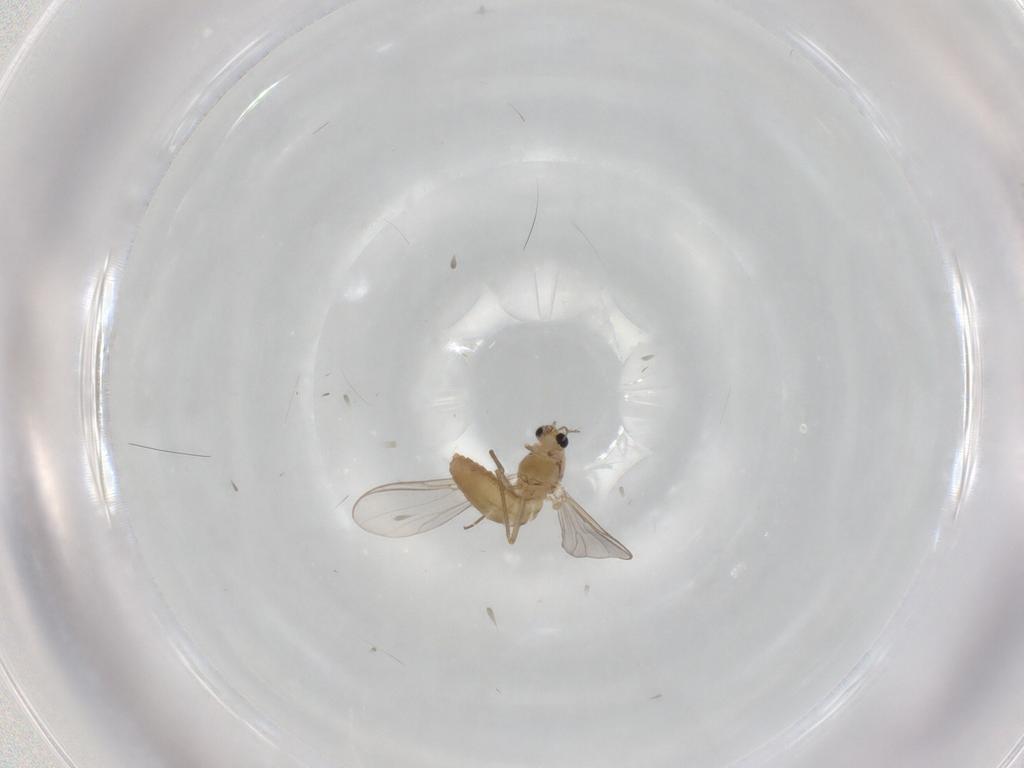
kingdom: Animalia
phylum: Arthropoda
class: Insecta
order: Diptera
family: Chironomidae
